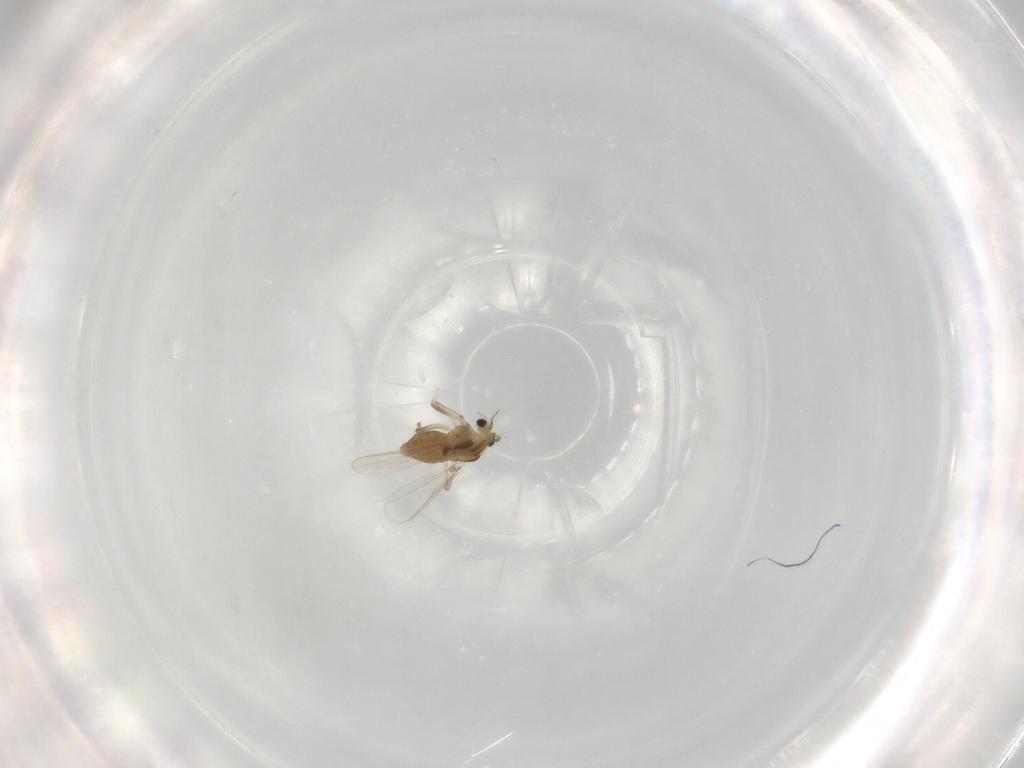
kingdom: Animalia
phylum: Arthropoda
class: Insecta
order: Diptera
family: Chironomidae
